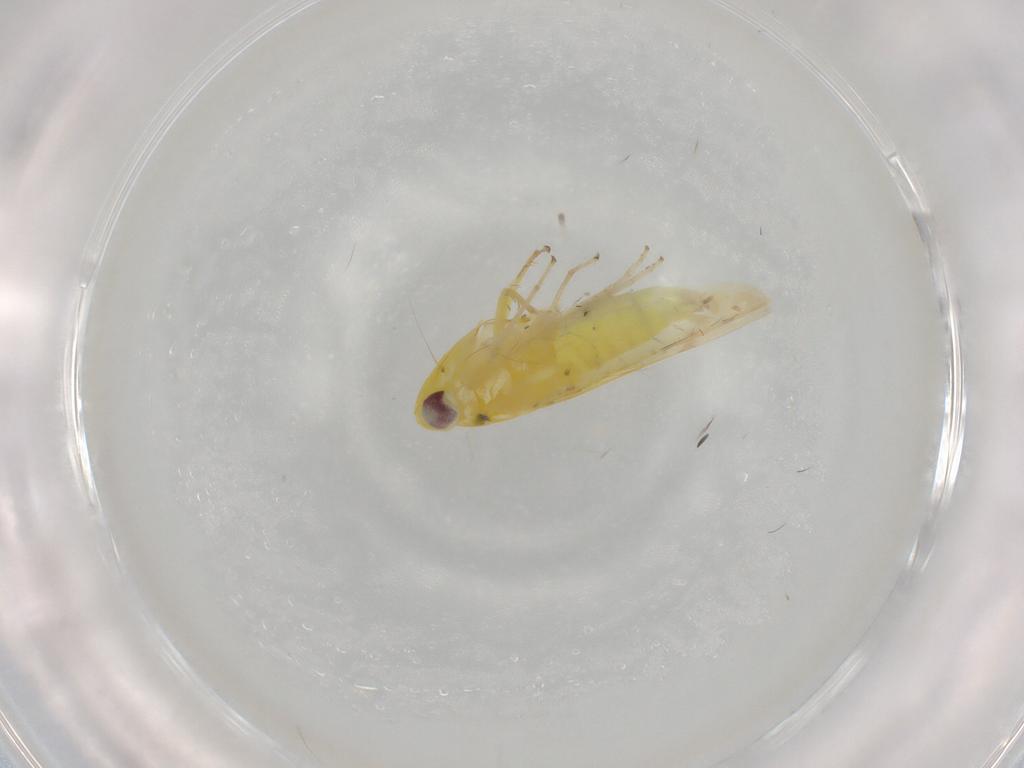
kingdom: Animalia
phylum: Arthropoda
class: Insecta
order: Hemiptera
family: Cicadellidae
